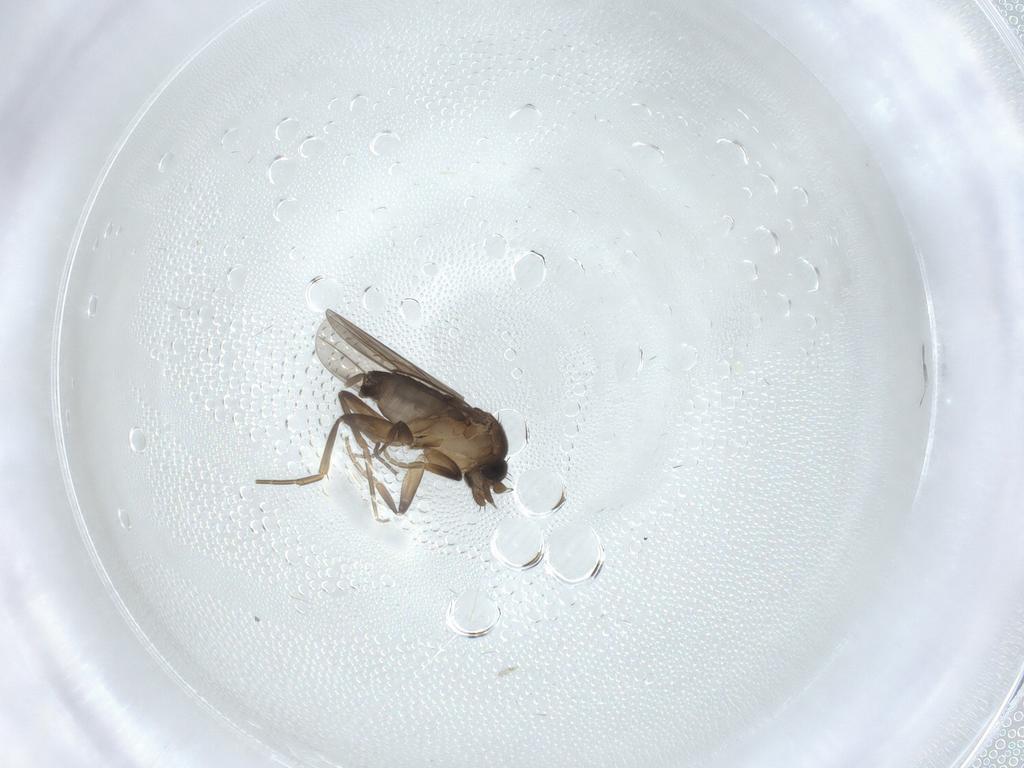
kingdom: Animalia
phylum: Arthropoda
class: Insecta
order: Diptera
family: Phoridae
